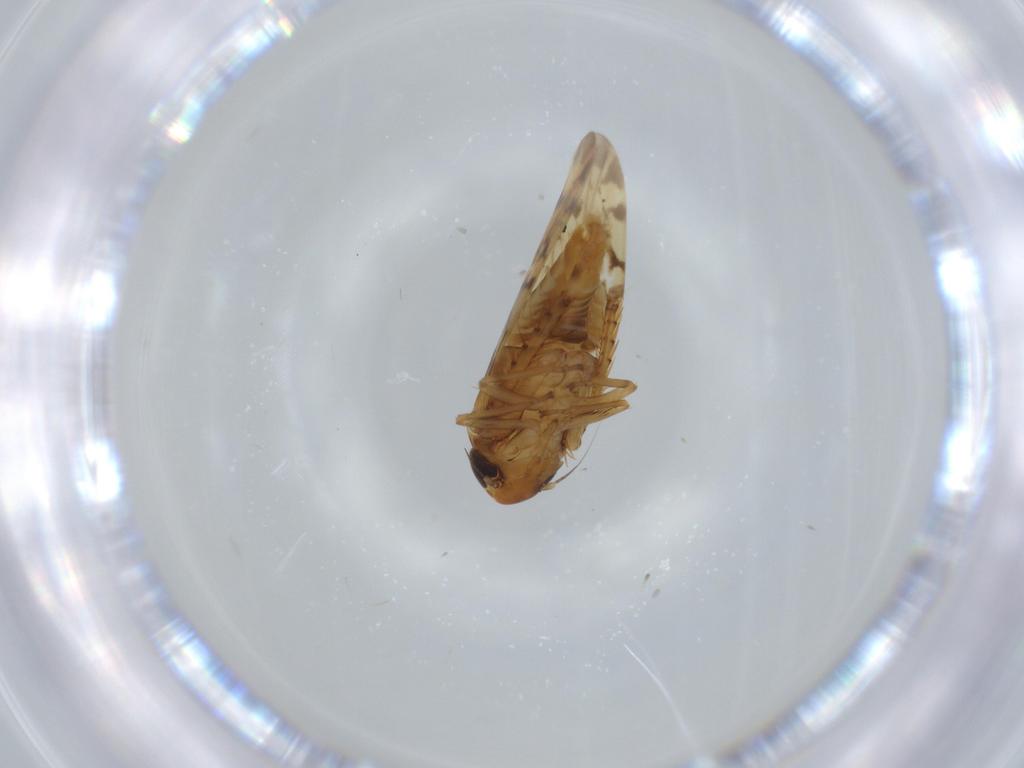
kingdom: Animalia
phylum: Arthropoda
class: Insecta
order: Hemiptera
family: Cicadellidae
